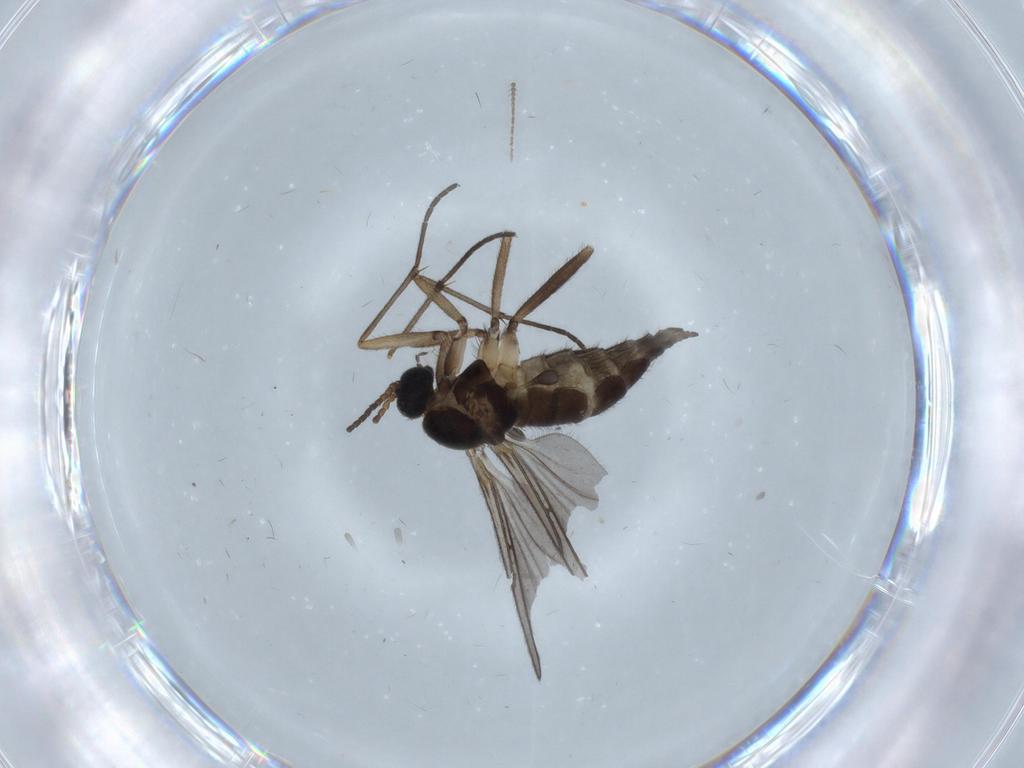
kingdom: Animalia
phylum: Arthropoda
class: Insecta
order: Diptera
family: Sciaridae
